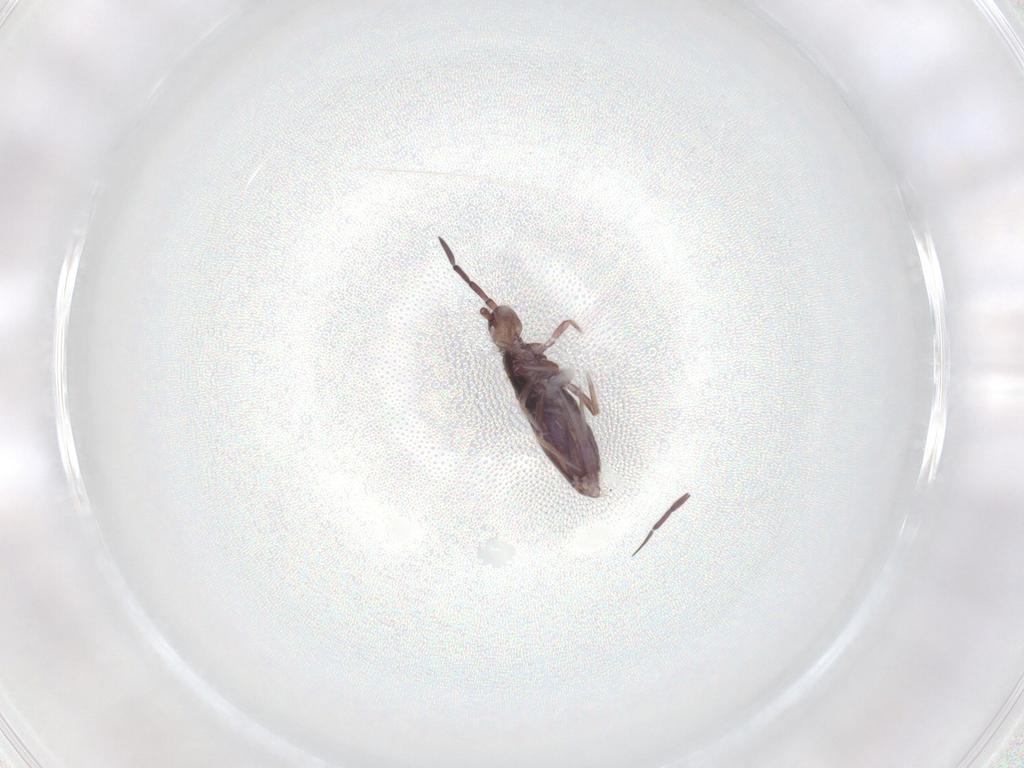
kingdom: Animalia
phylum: Arthropoda
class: Collembola
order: Entomobryomorpha
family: Entomobryidae
